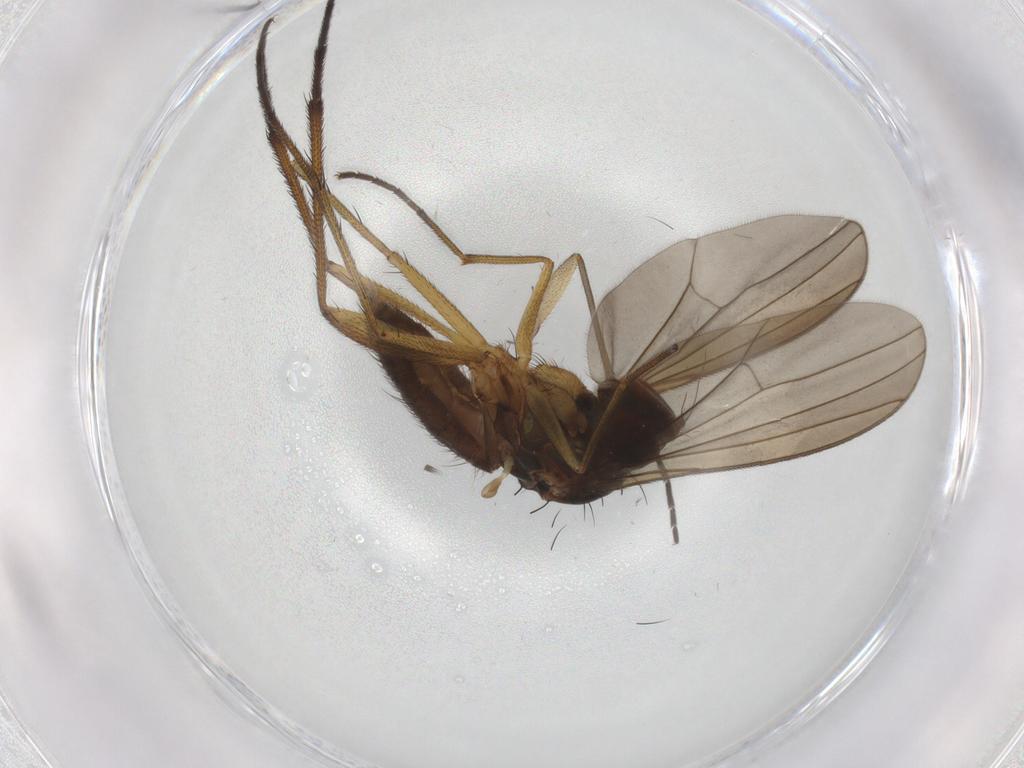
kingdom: Animalia
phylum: Arthropoda
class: Insecta
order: Diptera
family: Dolichopodidae
